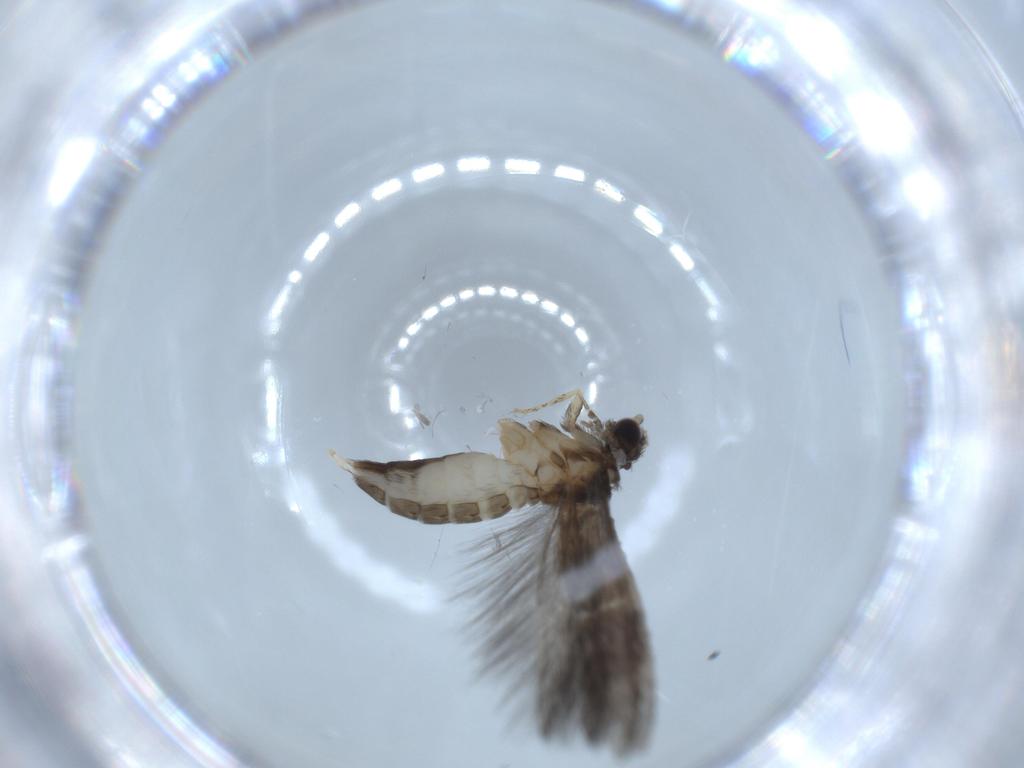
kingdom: Animalia
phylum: Arthropoda
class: Insecta
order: Trichoptera
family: Hydroptilidae
